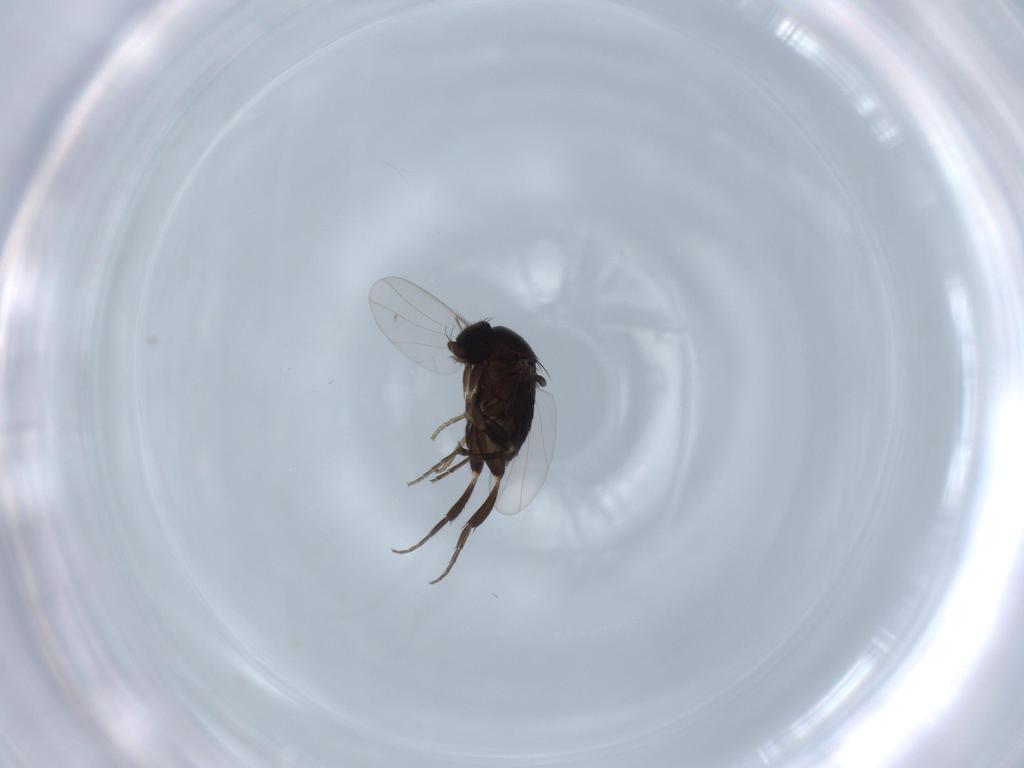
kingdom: Animalia
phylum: Arthropoda
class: Insecta
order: Diptera
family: Phoridae
